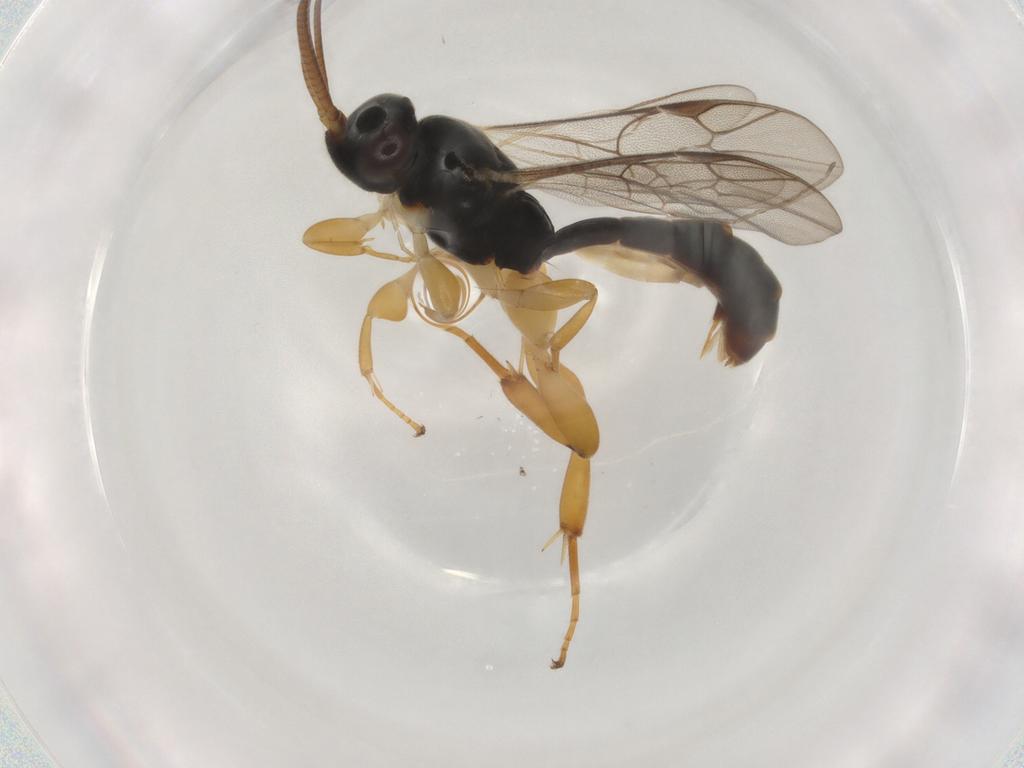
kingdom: Animalia
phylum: Arthropoda
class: Insecta
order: Hymenoptera
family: Ichneumonidae
